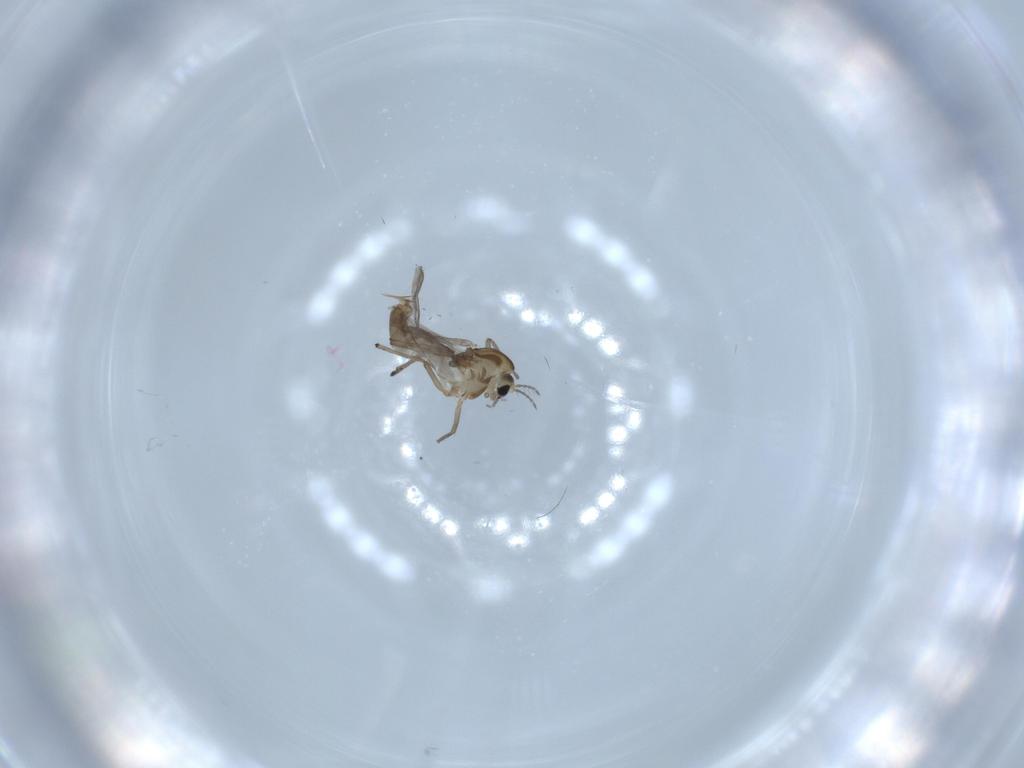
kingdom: Animalia
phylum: Arthropoda
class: Insecta
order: Diptera
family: Chironomidae
